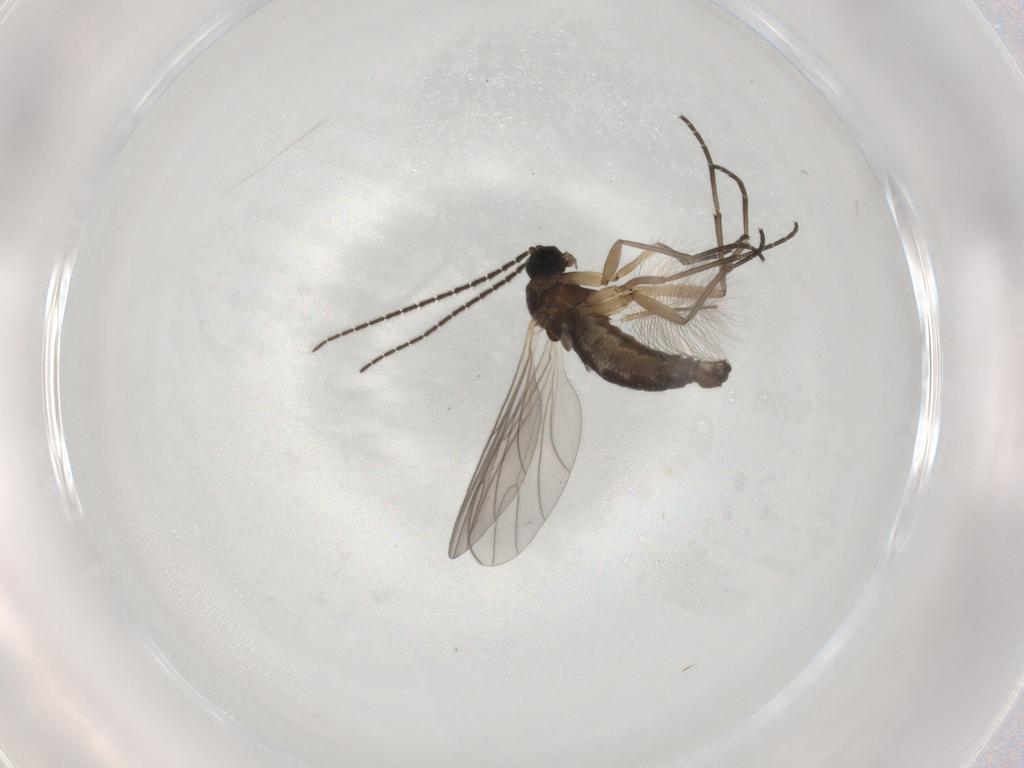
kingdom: Animalia
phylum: Arthropoda
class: Insecta
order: Diptera
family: Sciaridae
